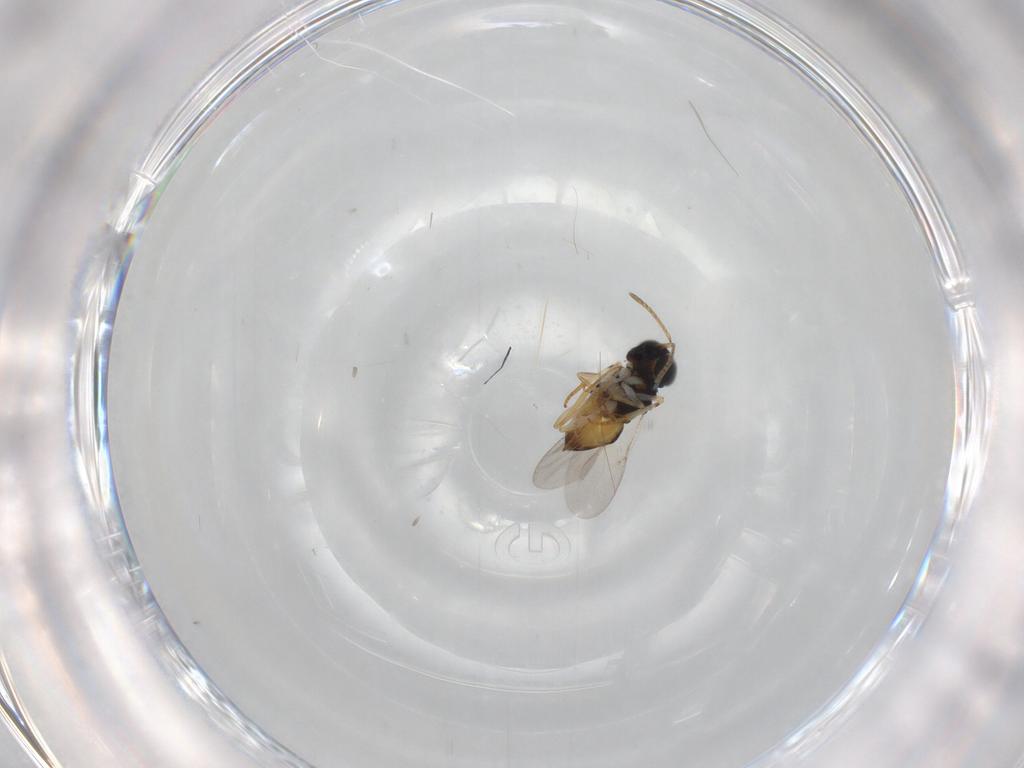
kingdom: Animalia
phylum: Arthropoda
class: Insecta
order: Hymenoptera
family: Encyrtidae
